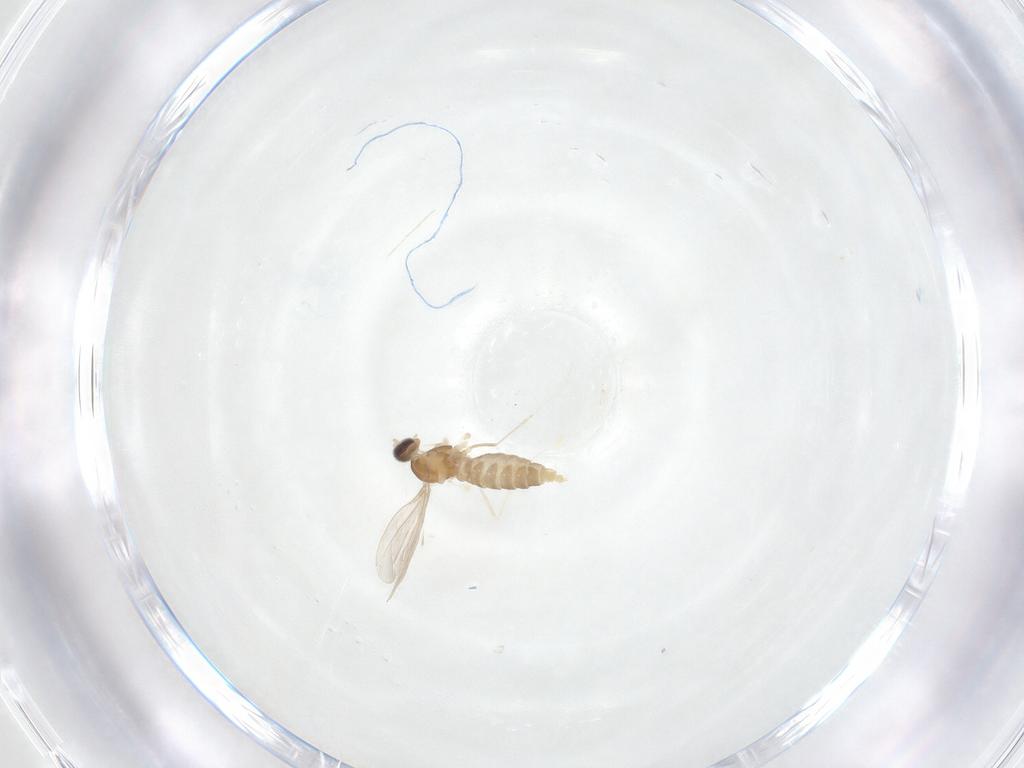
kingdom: Animalia
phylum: Arthropoda
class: Insecta
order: Diptera
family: Cecidomyiidae
